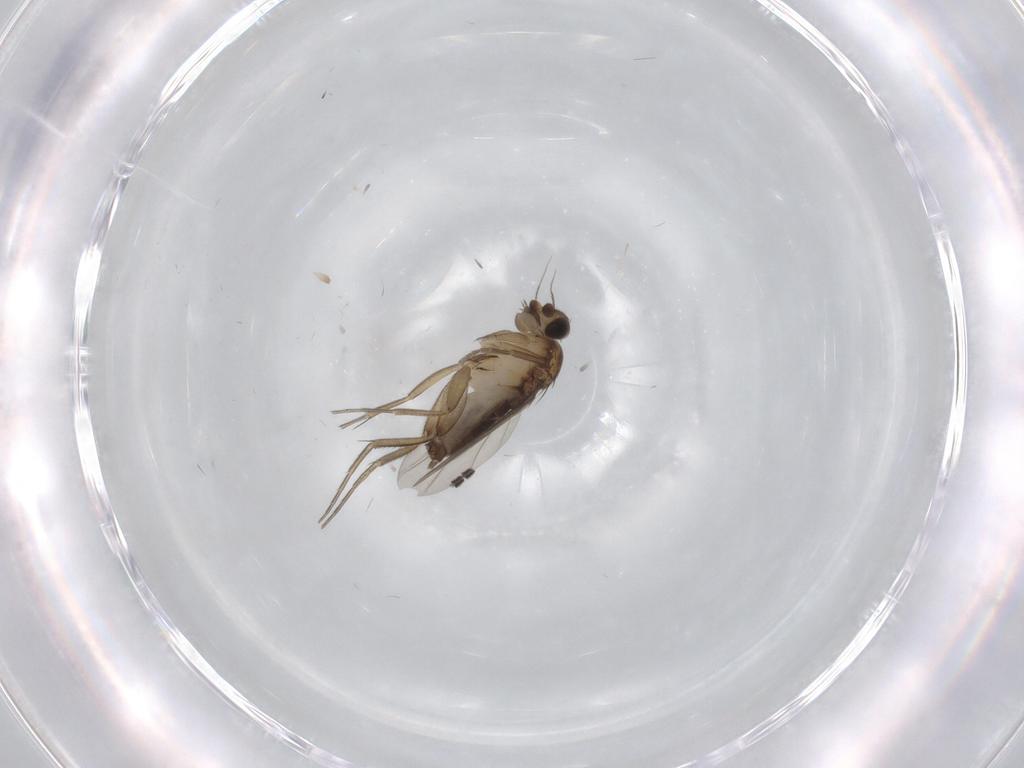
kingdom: Animalia
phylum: Arthropoda
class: Insecta
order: Diptera
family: Phoridae
